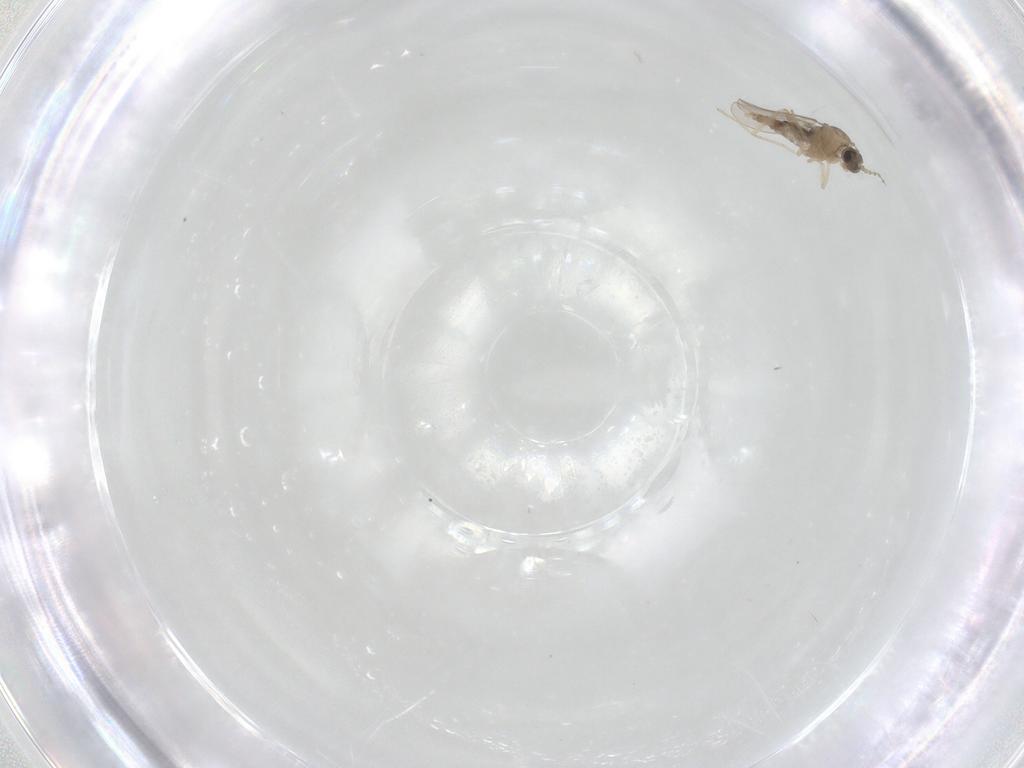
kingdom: Animalia
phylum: Arthropoda
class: Insecta
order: Diptera
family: Cecidomyiidae
